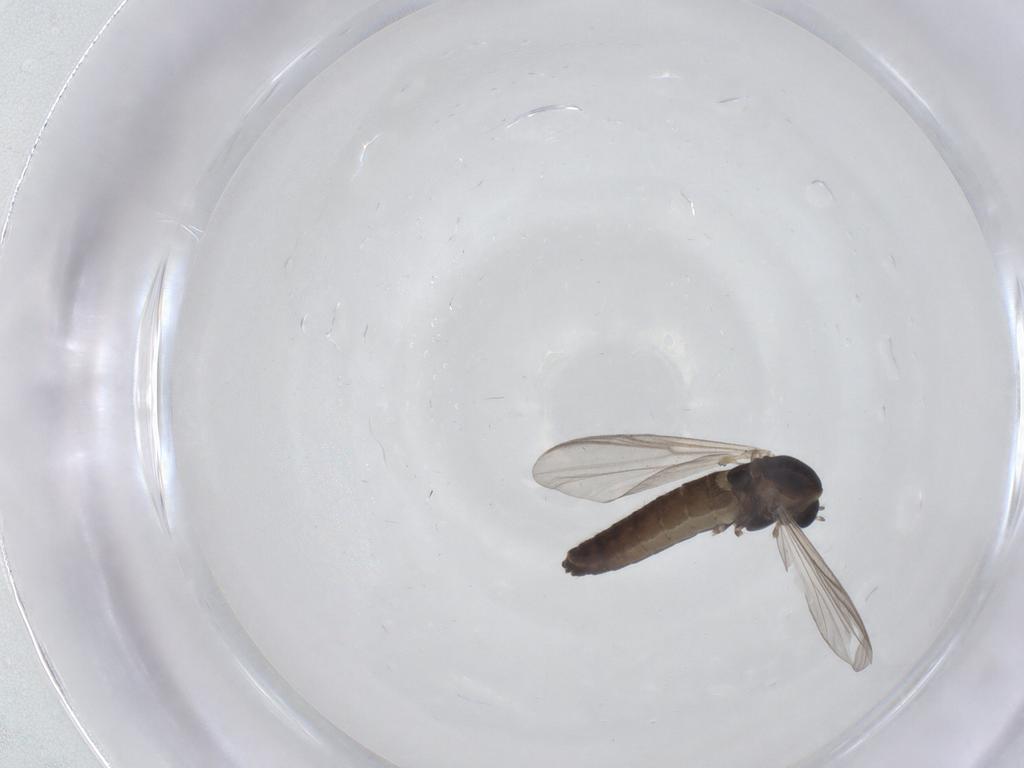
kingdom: Animalia
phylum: Arthropoda
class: Insecta
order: Diptera
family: Chironomidae
